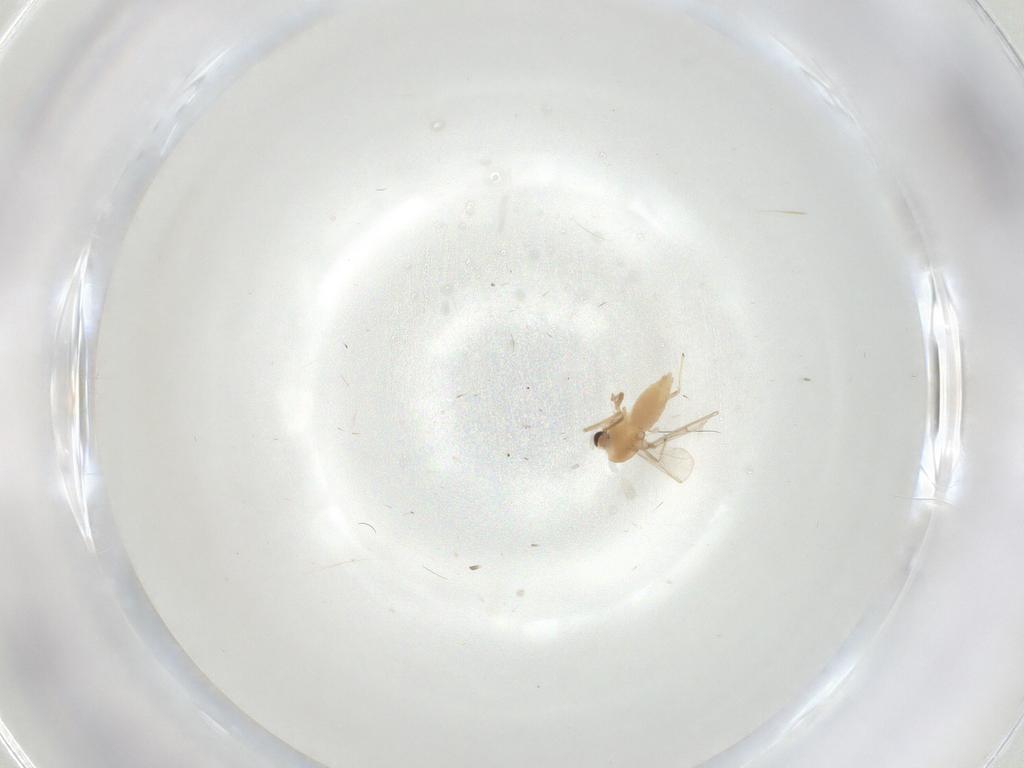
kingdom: Animalia
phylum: Arthropoda
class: Insecta
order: Diptera
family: Chironomidae
